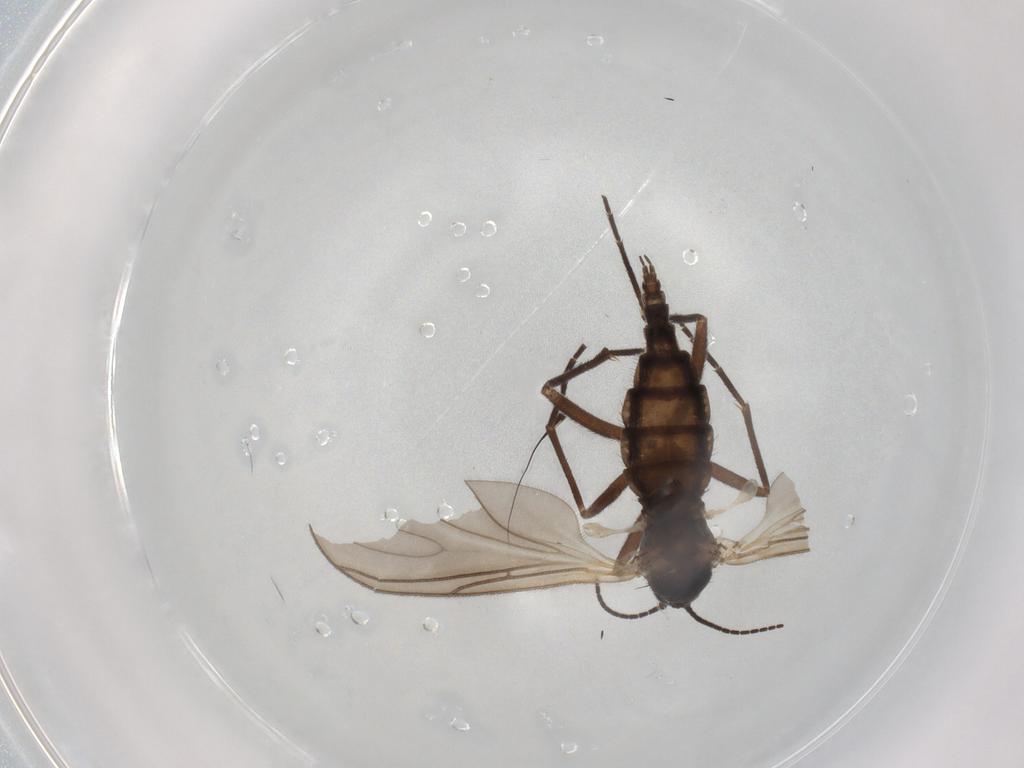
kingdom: Animalia
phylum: Arthropoda
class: Insecta
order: Diptera
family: Sciaridae
